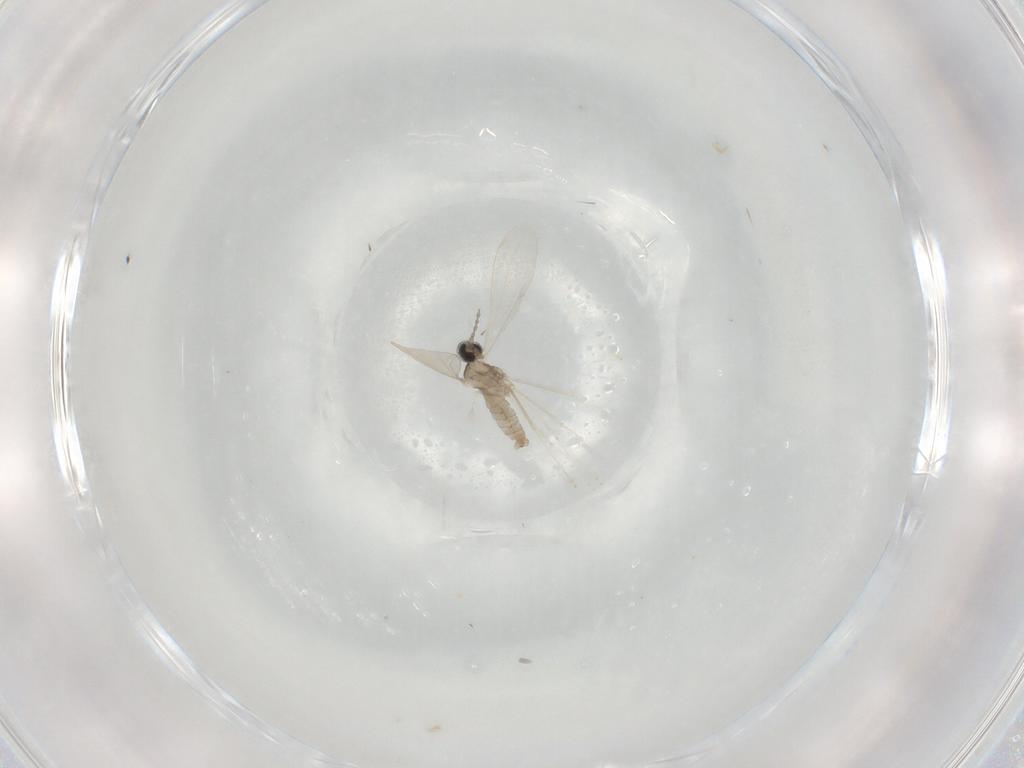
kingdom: Animalia
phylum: Arthropoda
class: Insecta
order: Diptera
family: Cecidomyiidae
